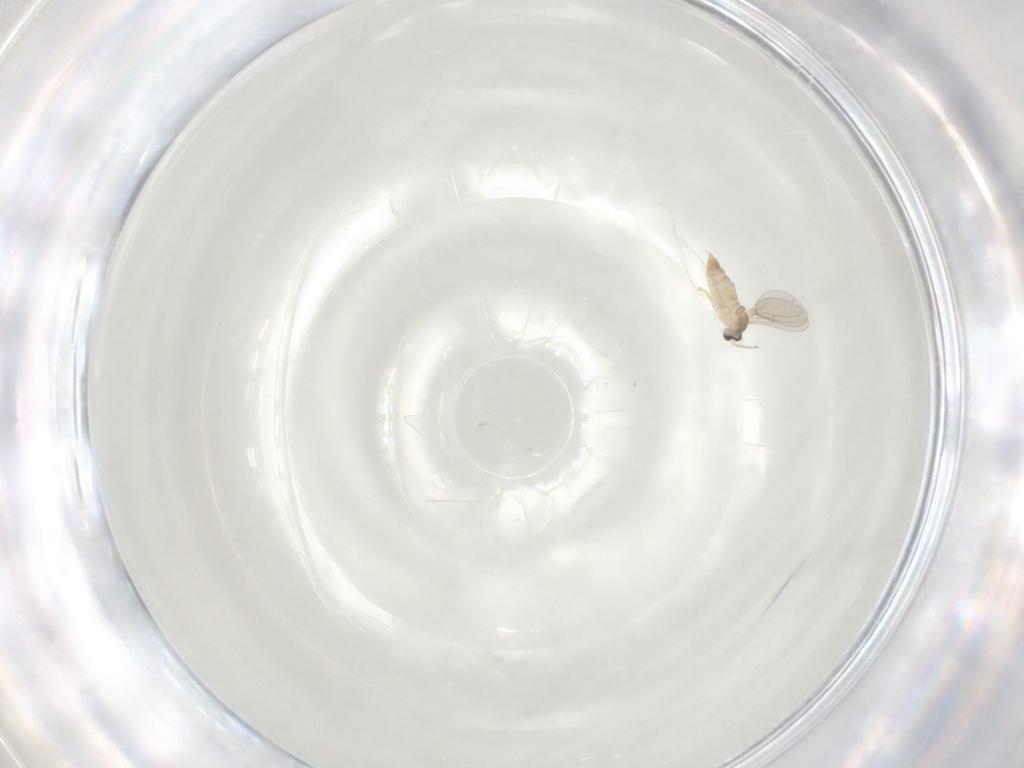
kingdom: Animalia
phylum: Arthropoda
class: Insecta
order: Diptera
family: Cecidomyiidae
